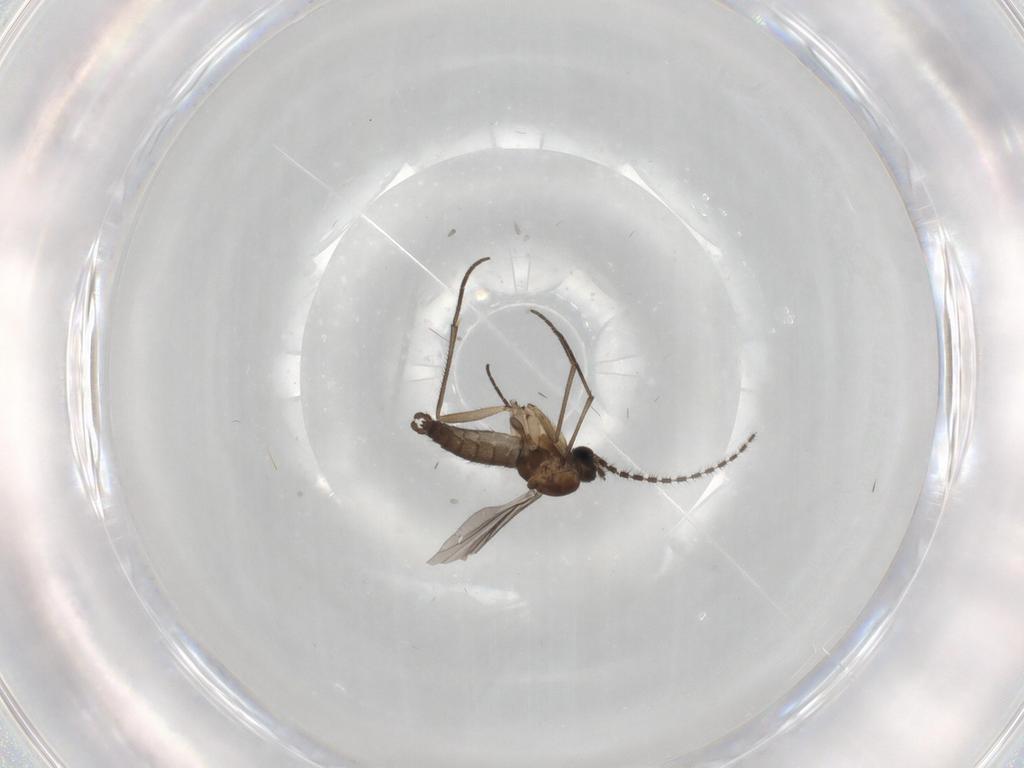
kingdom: Animalia
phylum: Arthropoda
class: Insecta
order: Diptera
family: Sciaridae
